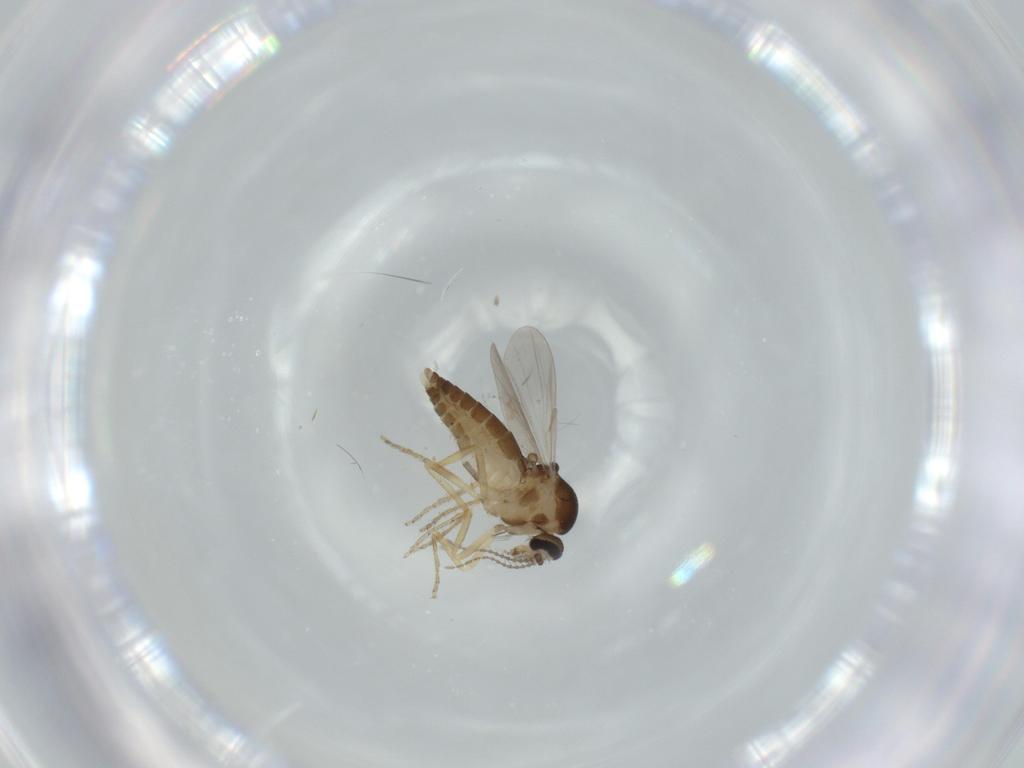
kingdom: Animalia
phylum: Arthropoda
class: Insecta
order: Diptera
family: Ceratopogonidae
